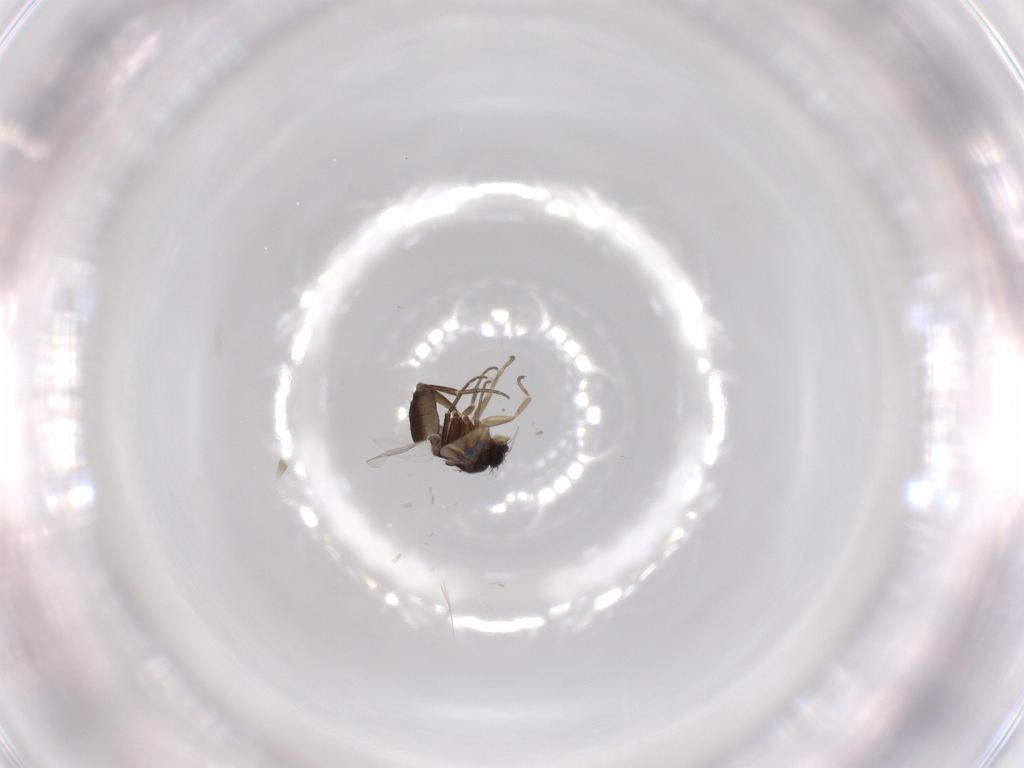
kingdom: Animalia
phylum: Arthropoda
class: Insecta
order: Diptera
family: Phoridae
